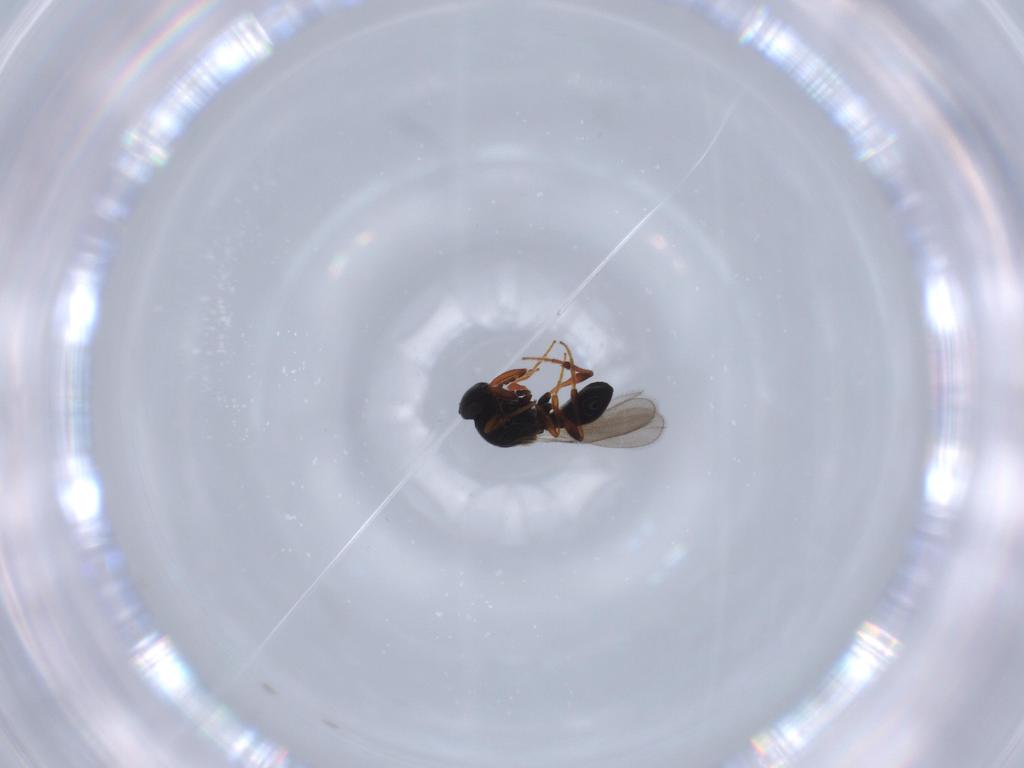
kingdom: Animalia
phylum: Arthropoda
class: Insecta
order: Hymenoptera
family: Platygastridae
